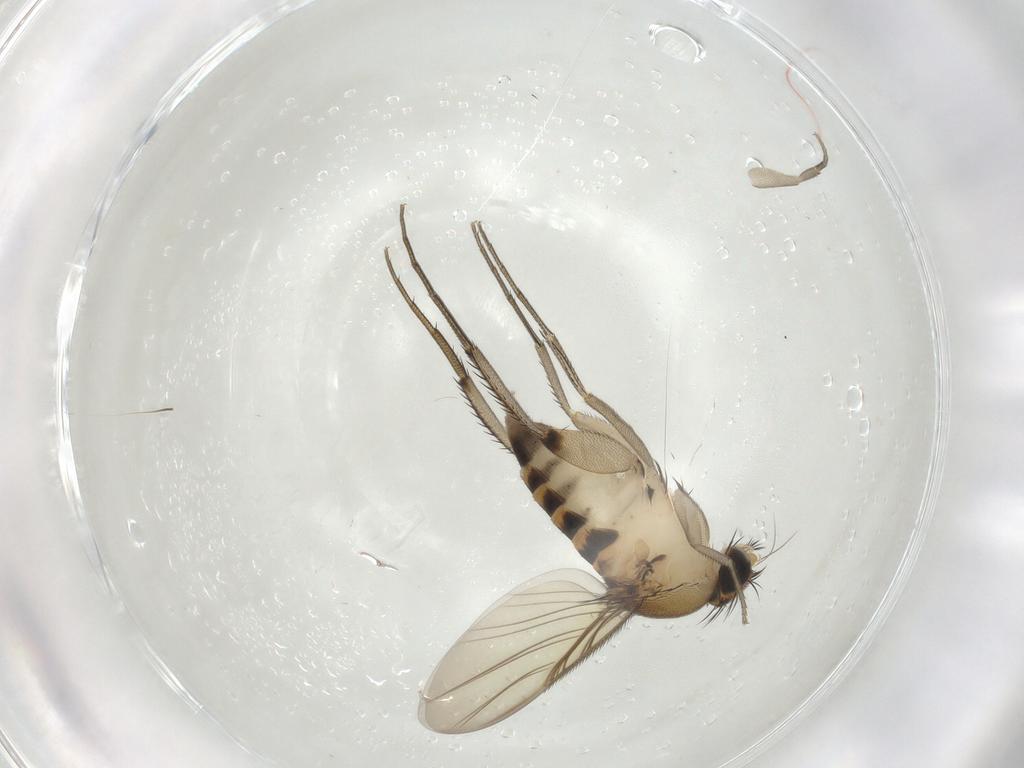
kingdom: Animalia
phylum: Arthropoda
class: Insecta
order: Diptera
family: Phoridae
